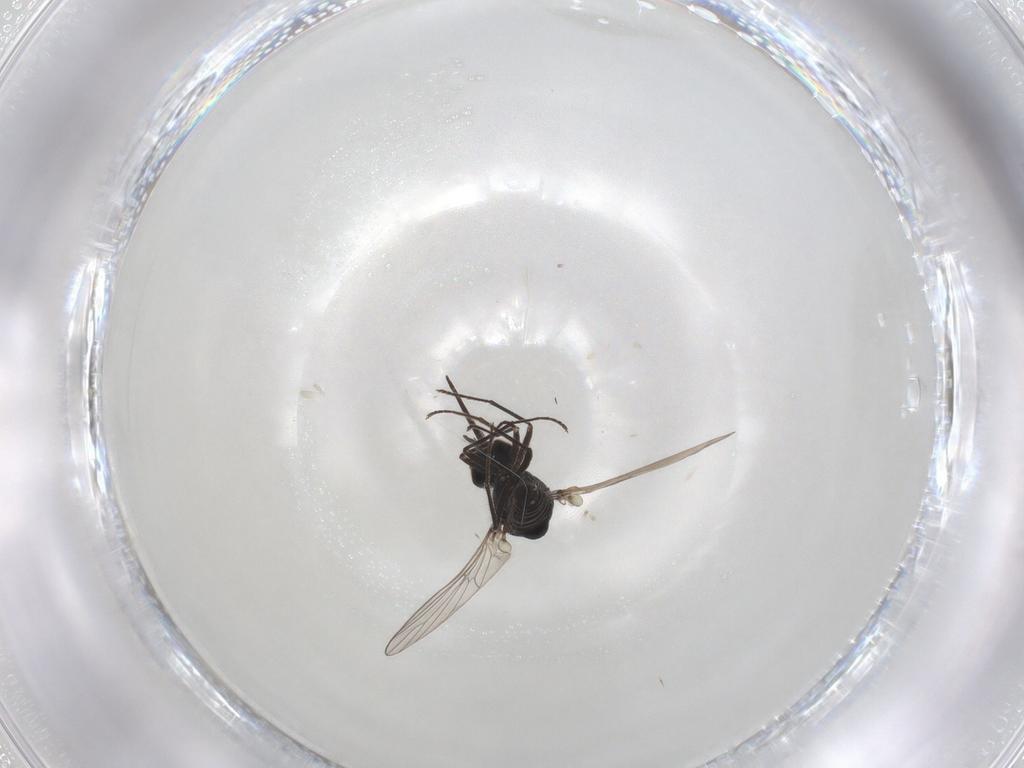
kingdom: Animalia
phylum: Arthropoda
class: Insecta
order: Diptera
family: Bombyliidae
